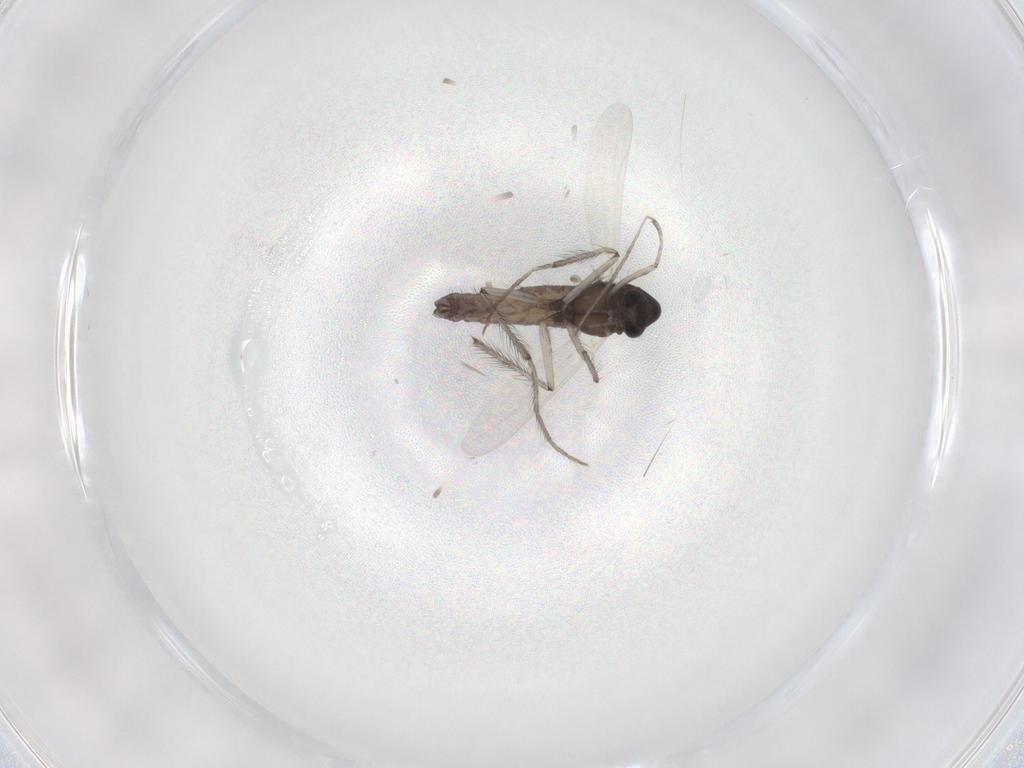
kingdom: Animalia
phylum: Arthropoda
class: Insecta
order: Diptera
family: Chironomidae
